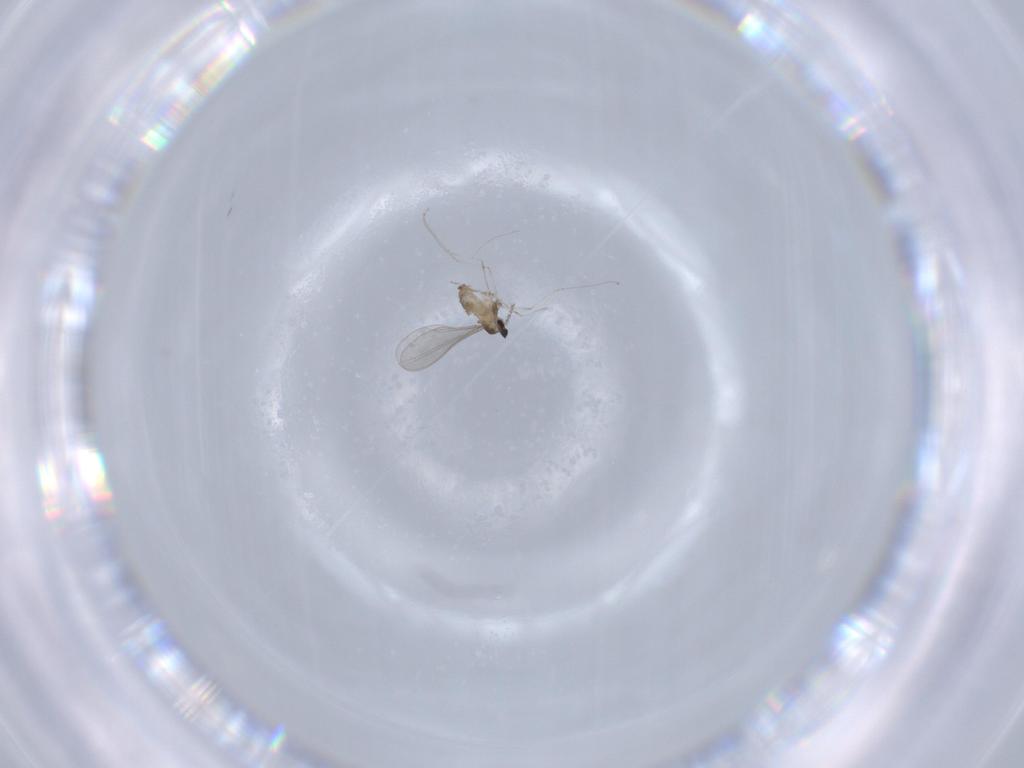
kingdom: Animalia
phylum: Arthropoda
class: Insecta
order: Diptera
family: Cecidomyiidae
